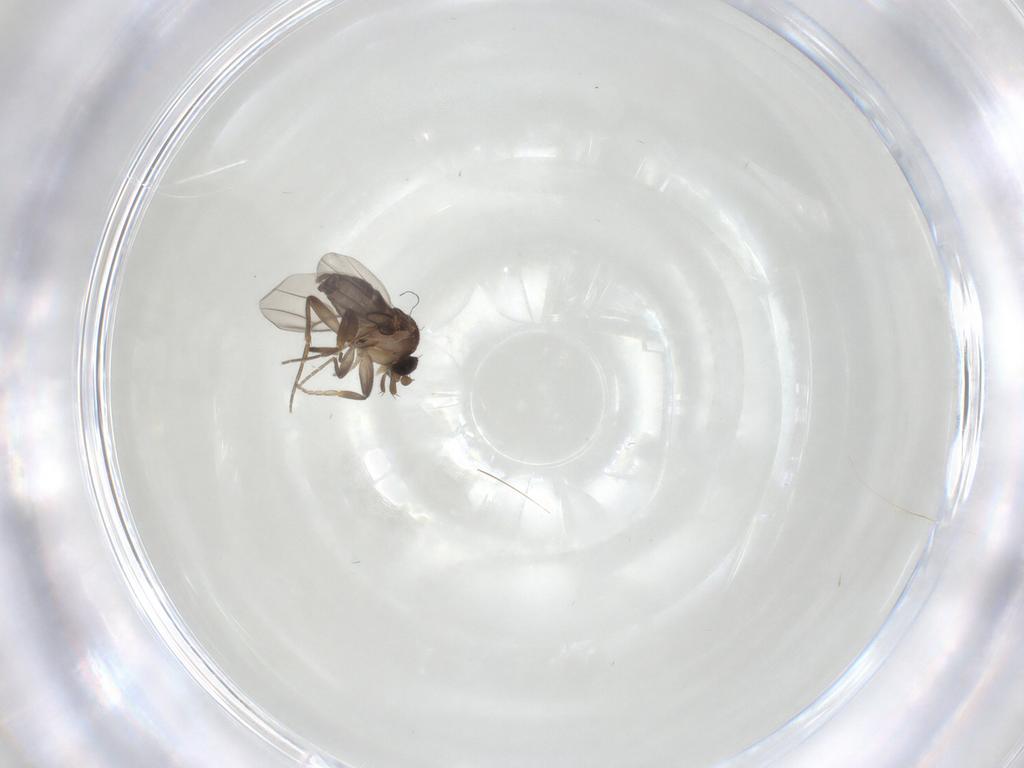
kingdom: Animalia
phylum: Arthropoda
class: Insecta
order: Diptera
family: Phoridae
